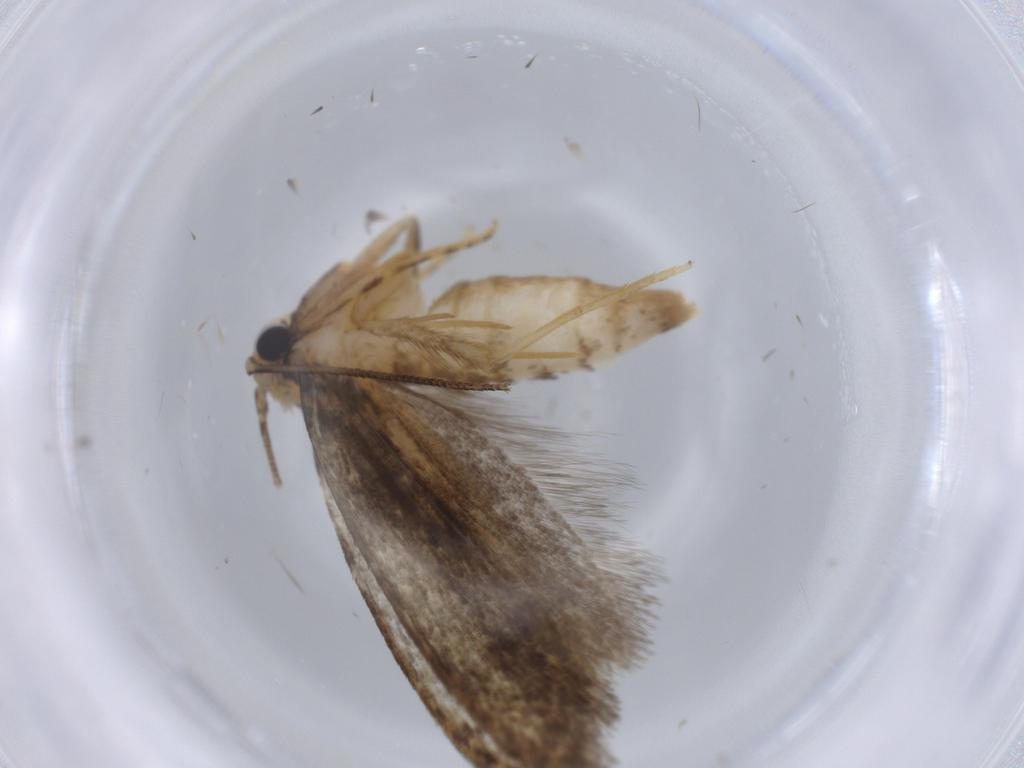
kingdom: Animalia
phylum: Arthropoda
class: Insecta
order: Lepidoptera
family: Tineidae
